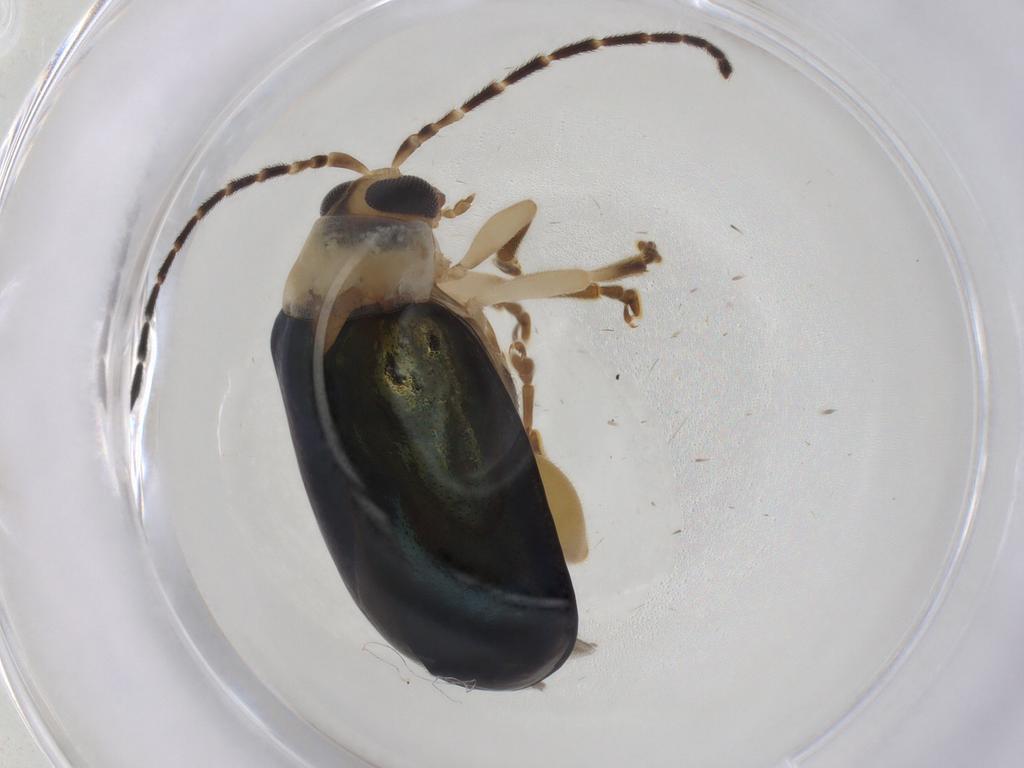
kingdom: Animalia
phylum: Arthropoda
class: Insecta
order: Coleoptera
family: Chrysomelidae
